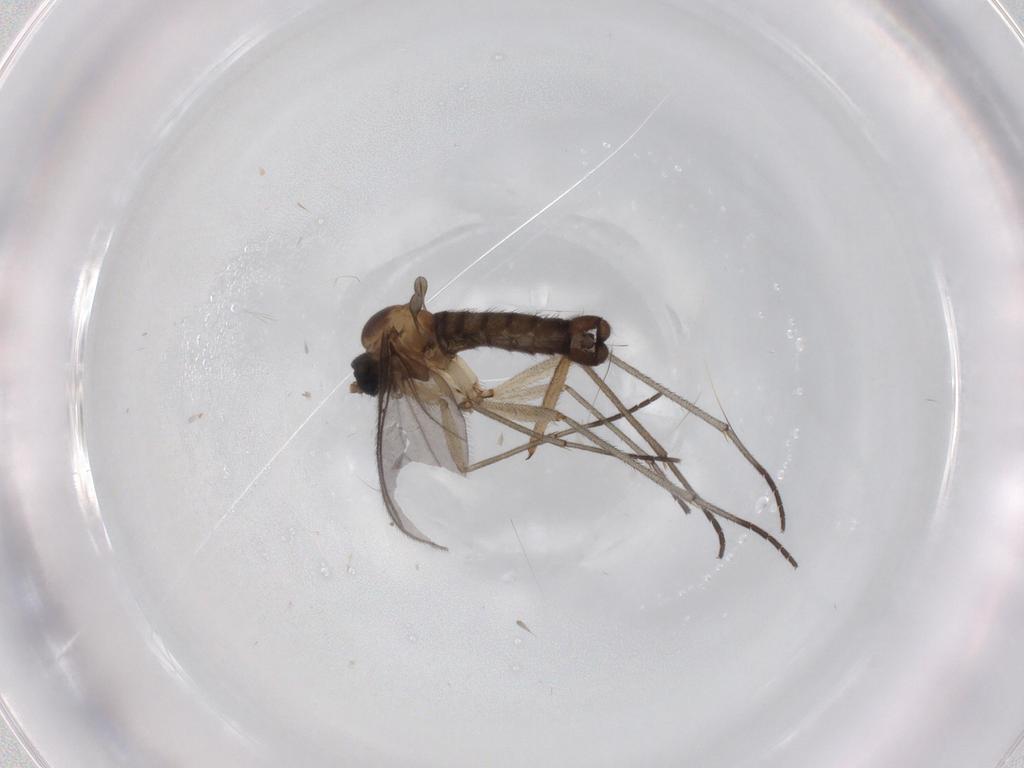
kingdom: Animalia
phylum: Arthropoda
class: Insecta
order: Diptera
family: Sciaridae
